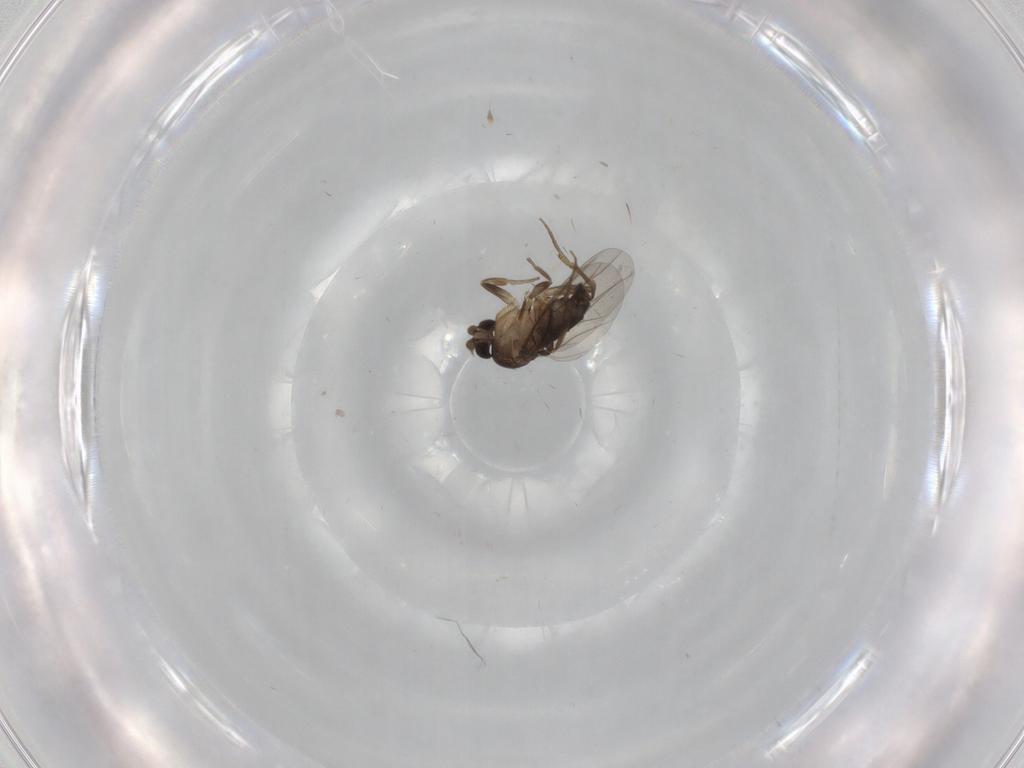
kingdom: Animalia
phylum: Arthropoda
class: Insecta
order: Diptera
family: Phoridae
